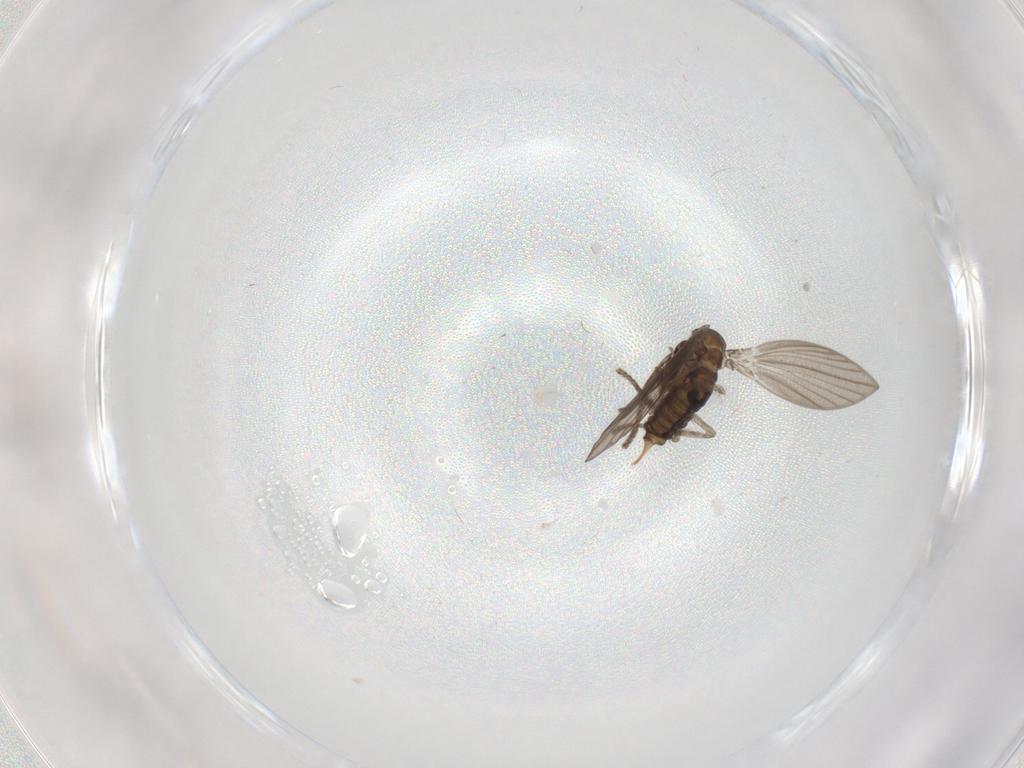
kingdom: Animalia
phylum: Arthropoda
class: Insecta
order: Diptera
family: Psychodidae
